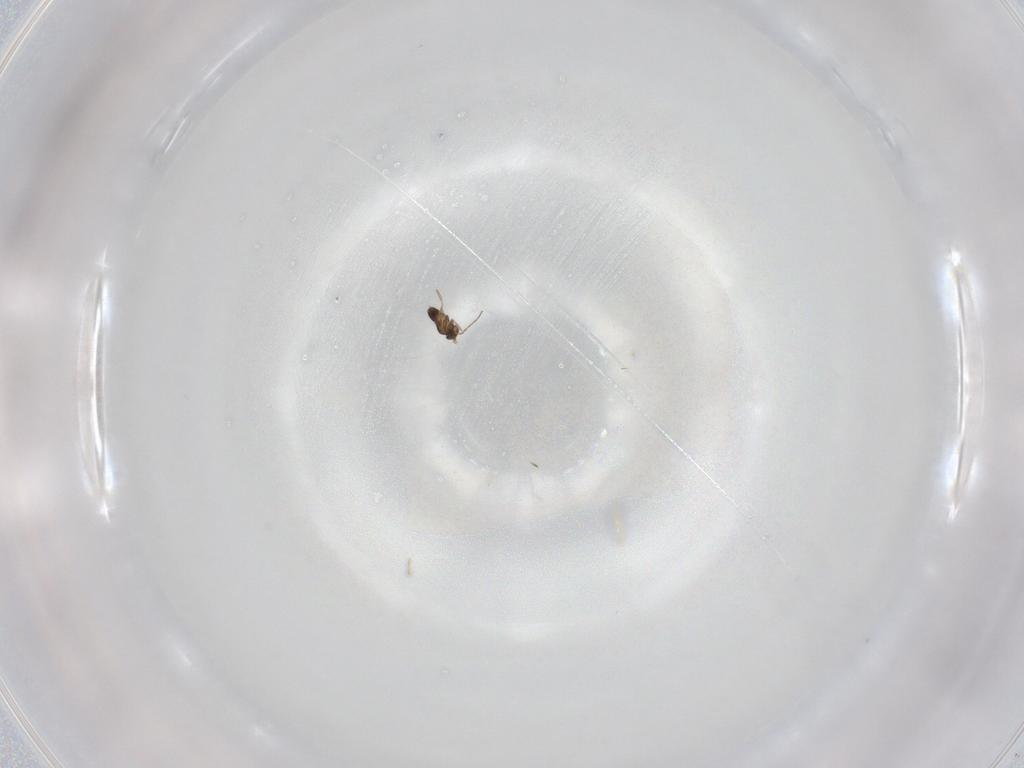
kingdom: Animalia
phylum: Arthropoda
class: Insecta
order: Hymenoptera
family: Mymaridae
